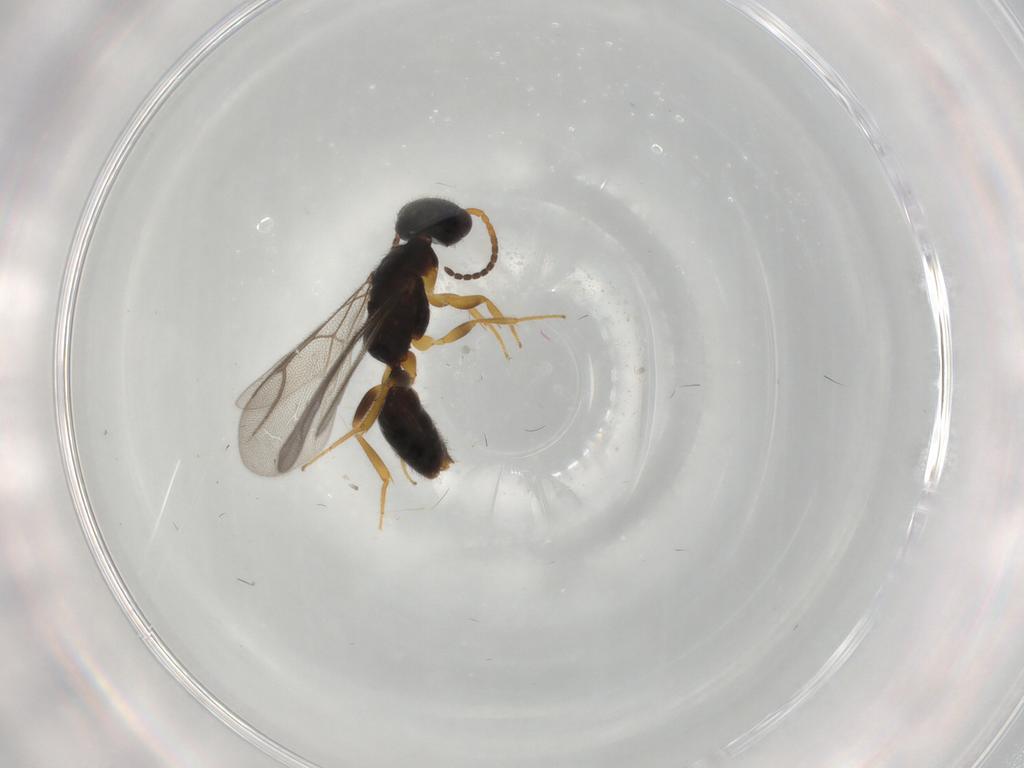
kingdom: Animalia
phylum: Arthropoda
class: Insecta
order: Hymenoptera
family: Bethylidae
